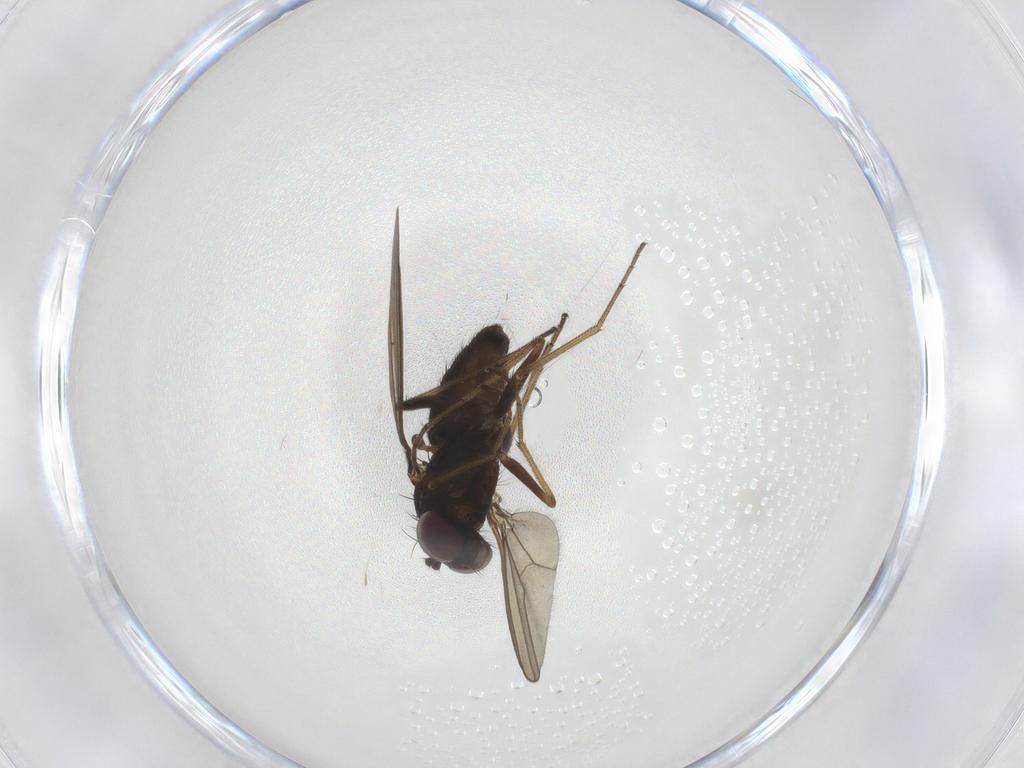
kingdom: Animalia
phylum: Arthropoda
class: Insecta
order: Diptera
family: Dolichopodidae
